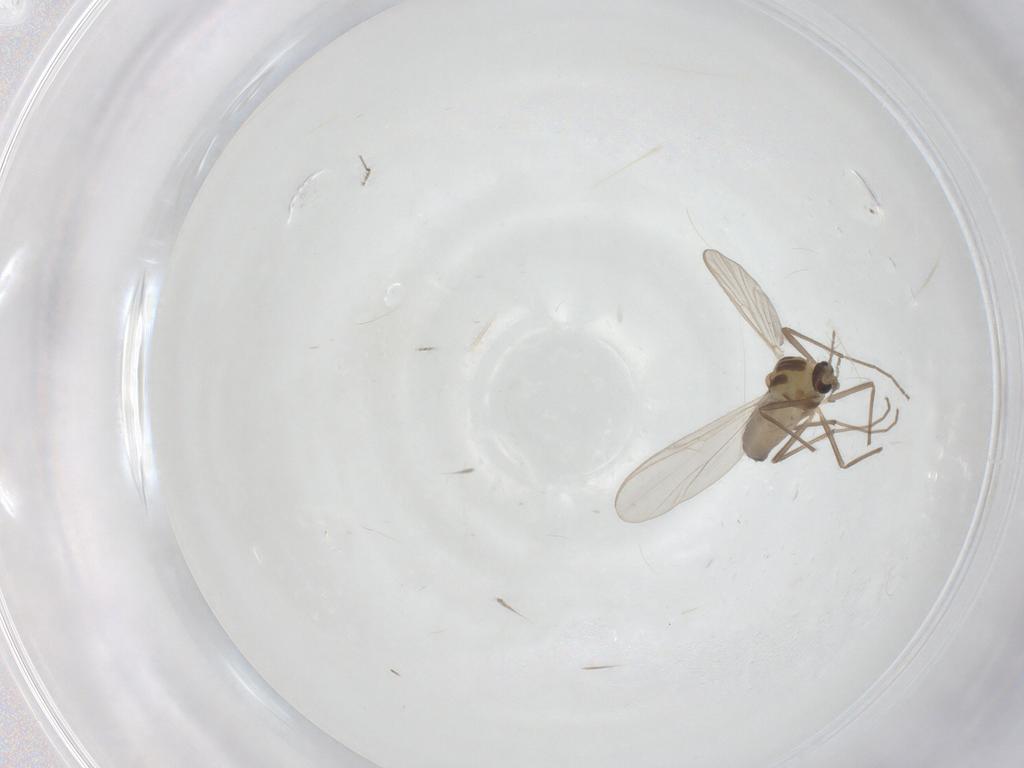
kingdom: Animalia
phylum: Arthropoda
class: Insecta
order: Diptera
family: Chironomidae
